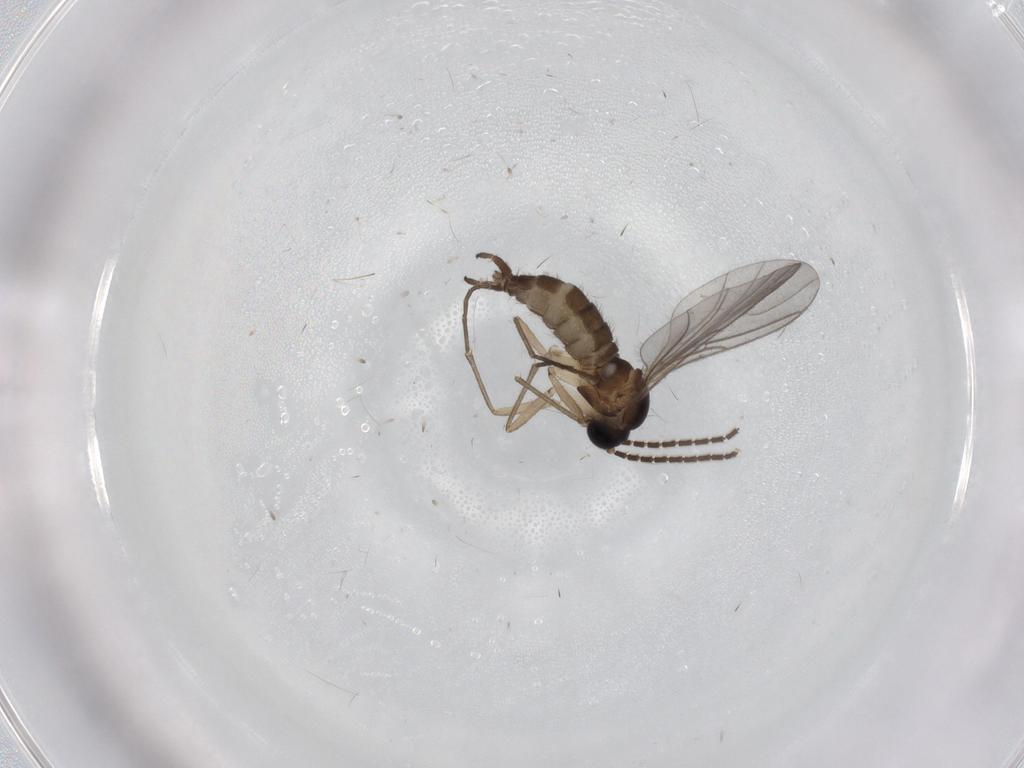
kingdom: Animalia
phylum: Arthropoda
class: Insecta
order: Diptera
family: Sciaridae
